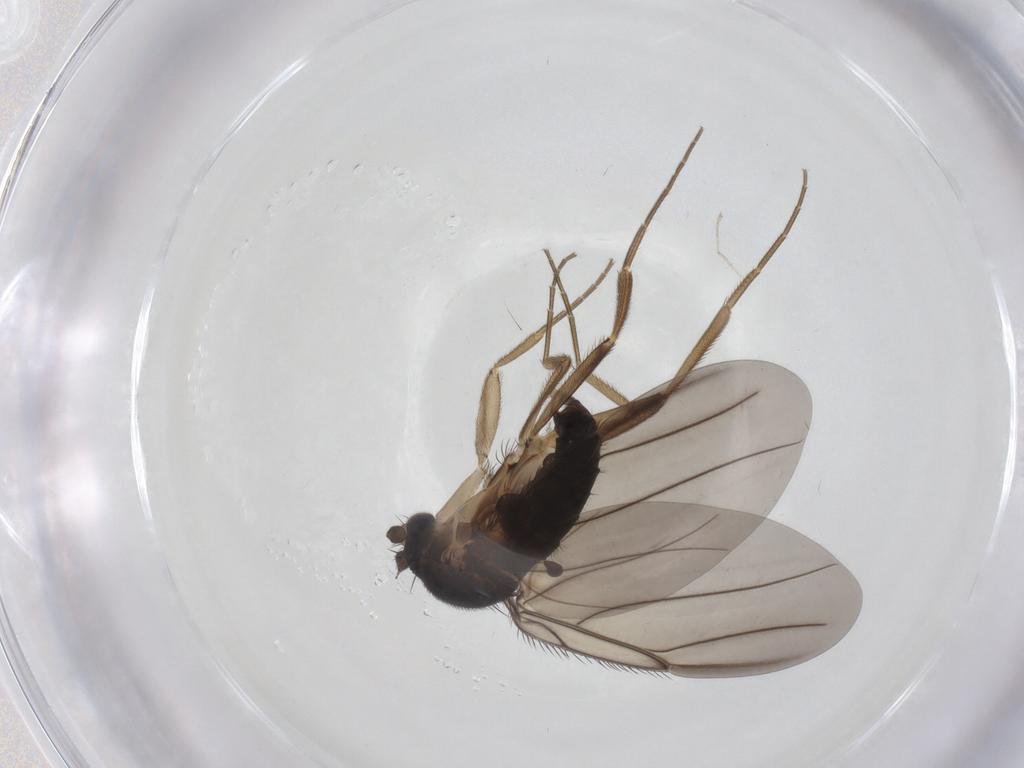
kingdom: Animalia
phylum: Arthropoda
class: Insecta
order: Diptera
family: Phoridae
